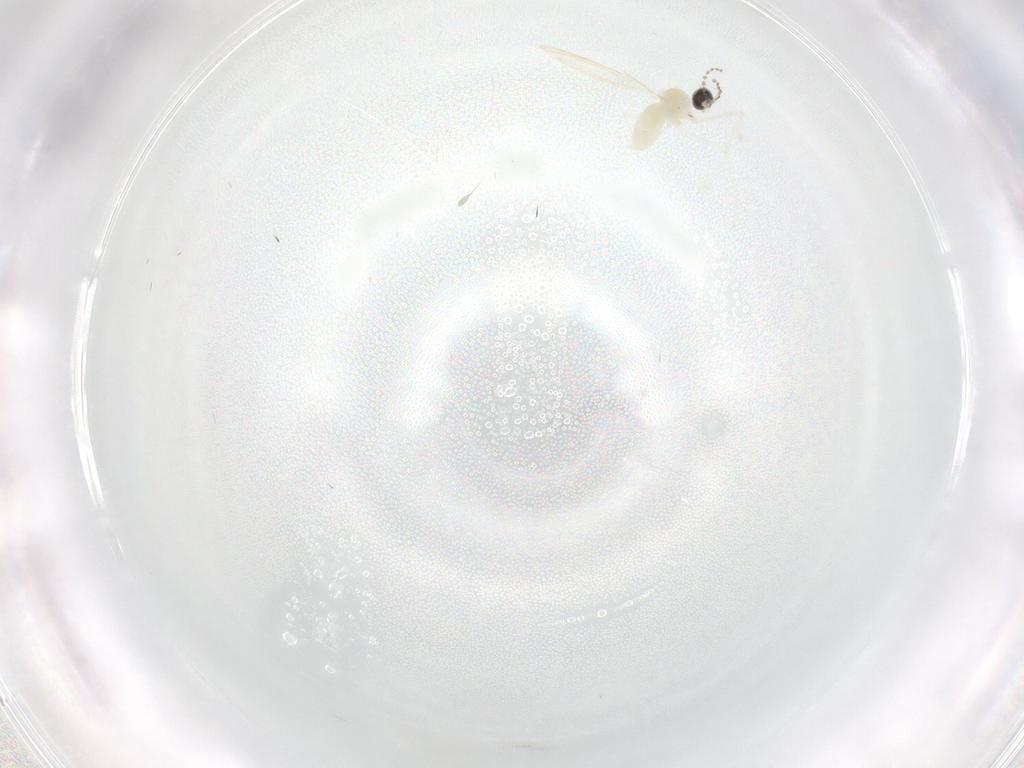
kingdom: Animalia
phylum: Arthropoda
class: Insecta
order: Diptera
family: Cecidomyiidae
